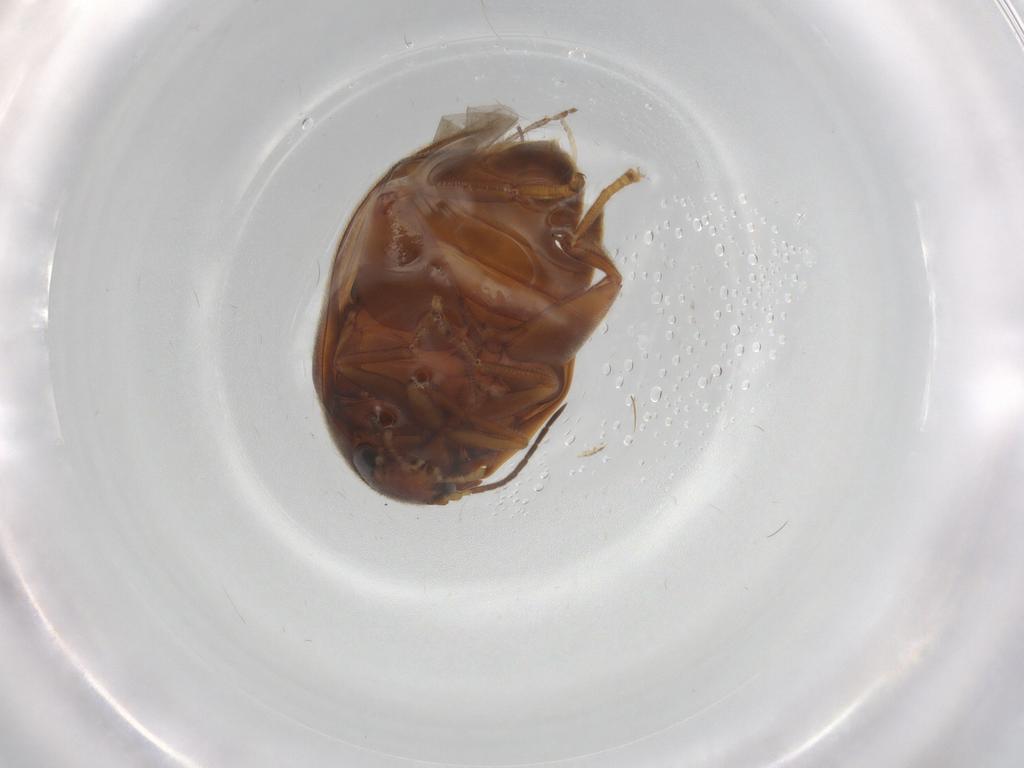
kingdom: Animalia
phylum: Arthropoda
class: Insecta
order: Coleoptera
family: Scirtidae
